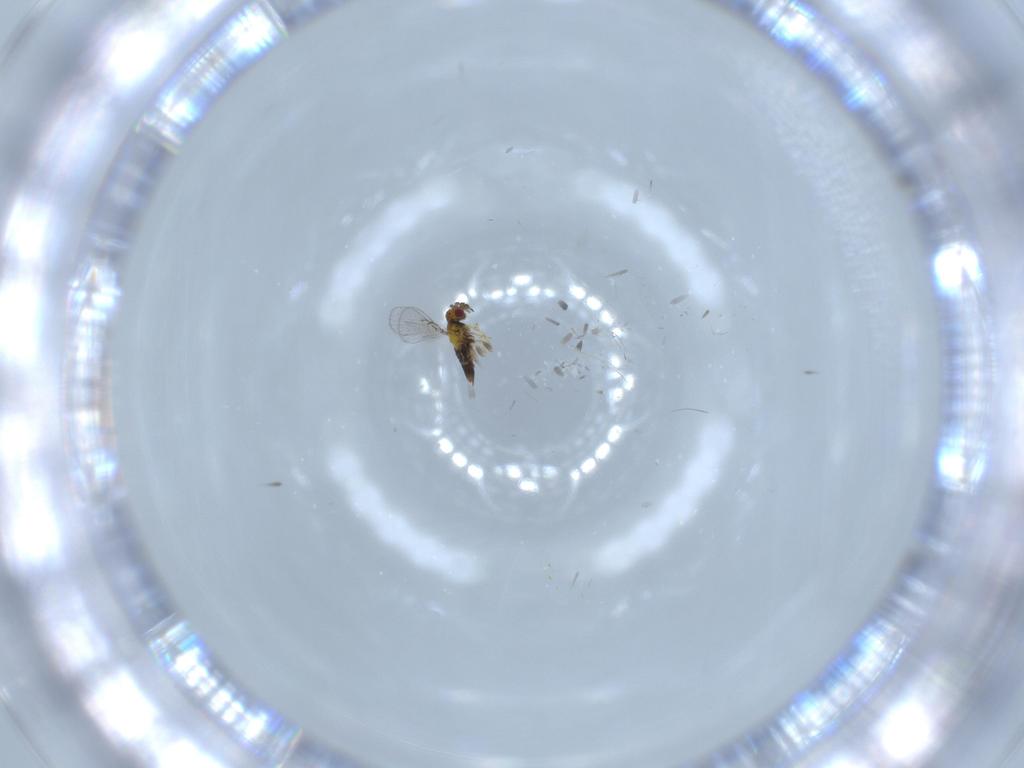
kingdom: Animalia
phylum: Arthropoda
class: Insecta
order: Hymenoptera
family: Trichogrammatidae
